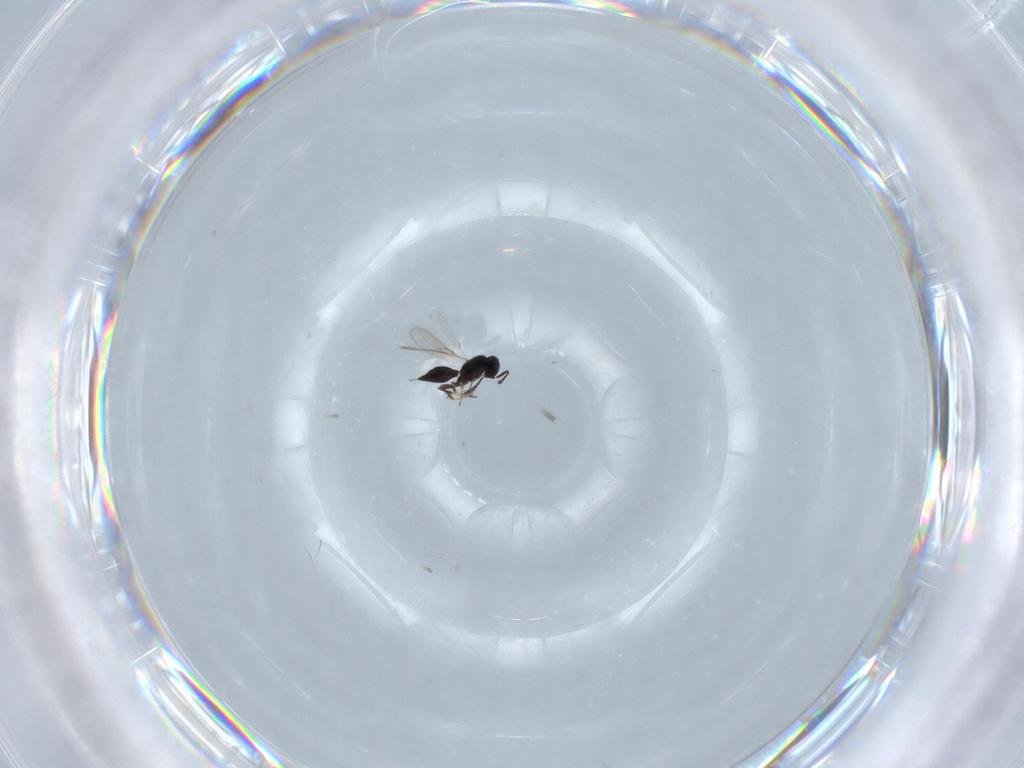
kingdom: Animalia
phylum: Arthropoda
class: Insecta
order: Hymenoptera
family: Scelionidae
